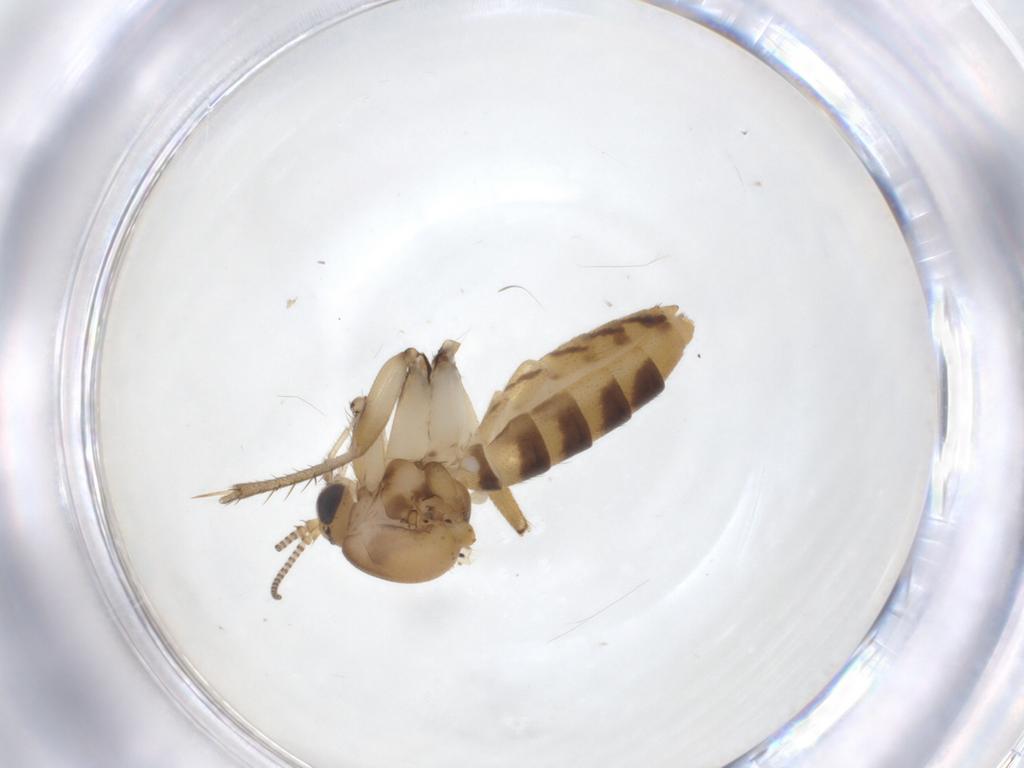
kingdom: Animalia
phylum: Arthropoda
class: Insecta
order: Diptera
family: Mycetophilidae
